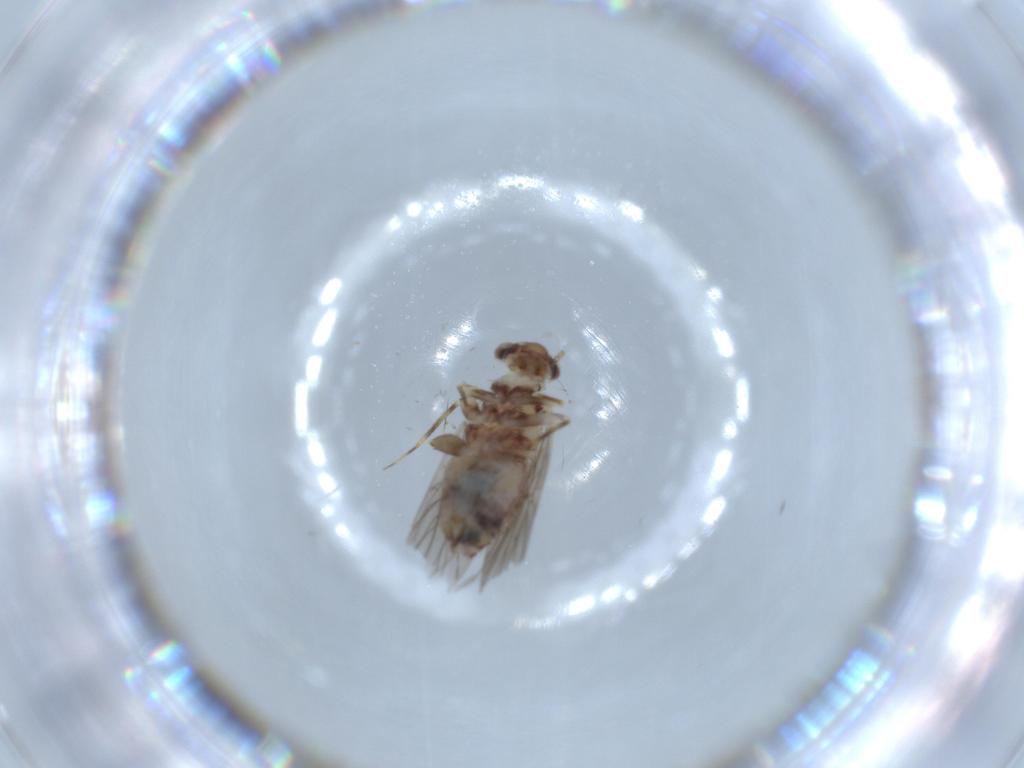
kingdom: Animalia
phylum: Arthropoda
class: Insecta
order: Psocodea
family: Lepidopsocidae
